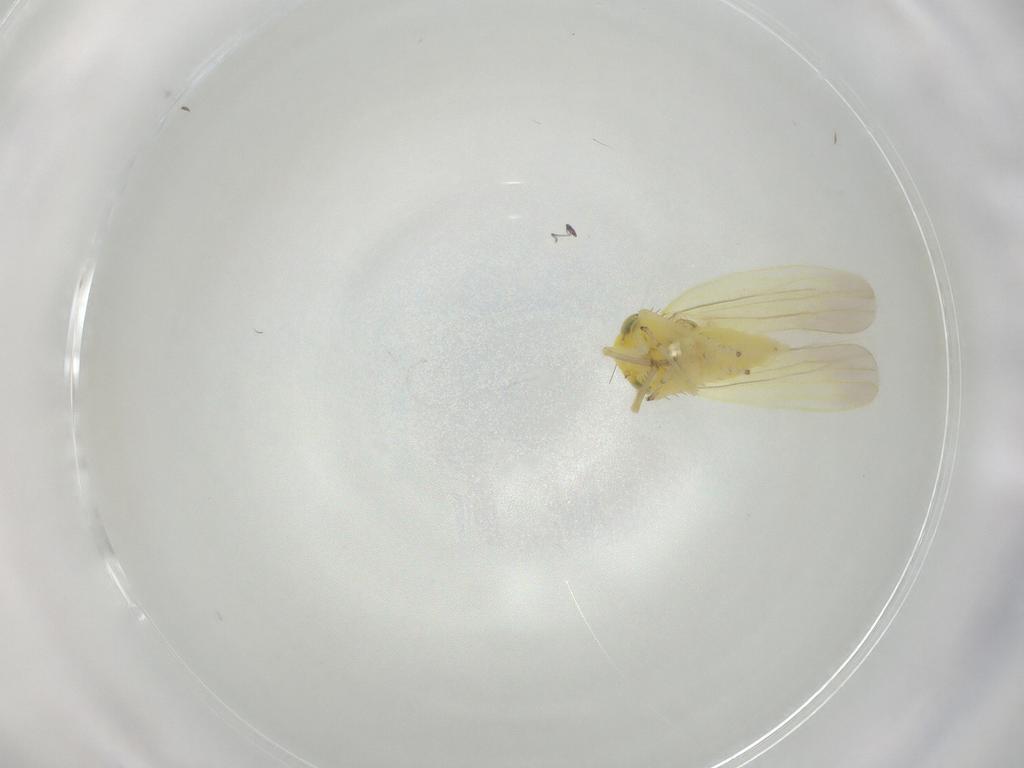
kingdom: Animalia
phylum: Arthropoda
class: Insecta
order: Hemiptera
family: Cicadellidae
